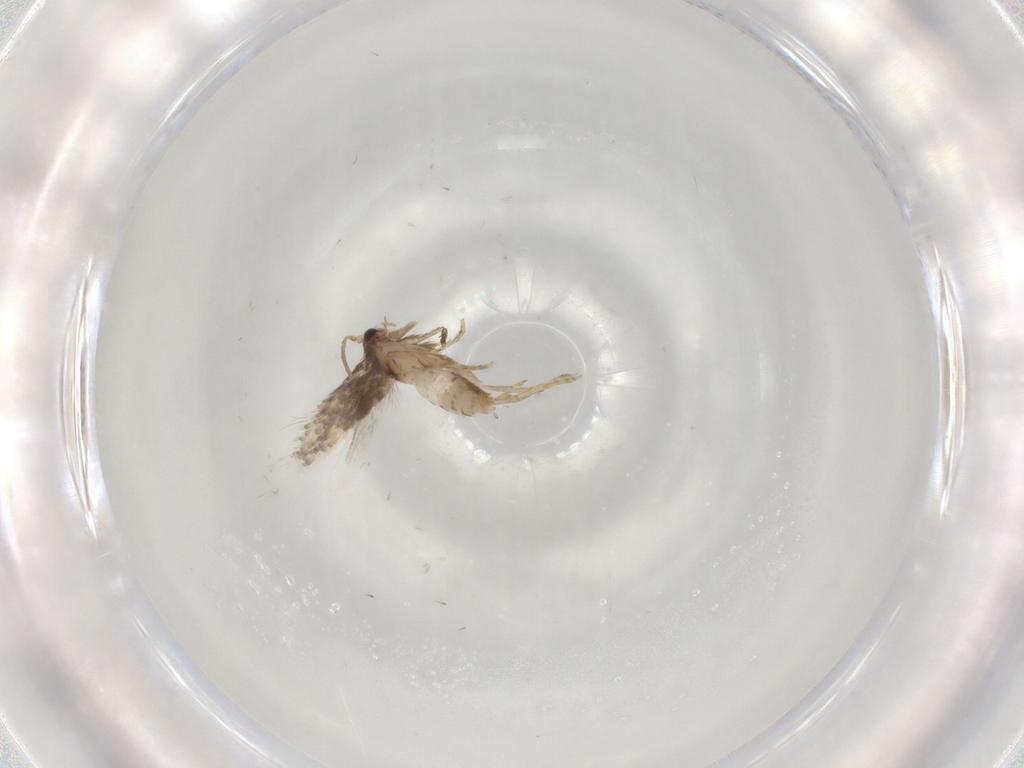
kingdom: Animalia
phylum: Arthropoda
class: Insecta
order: Lepidoptera
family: Nepticulidae
